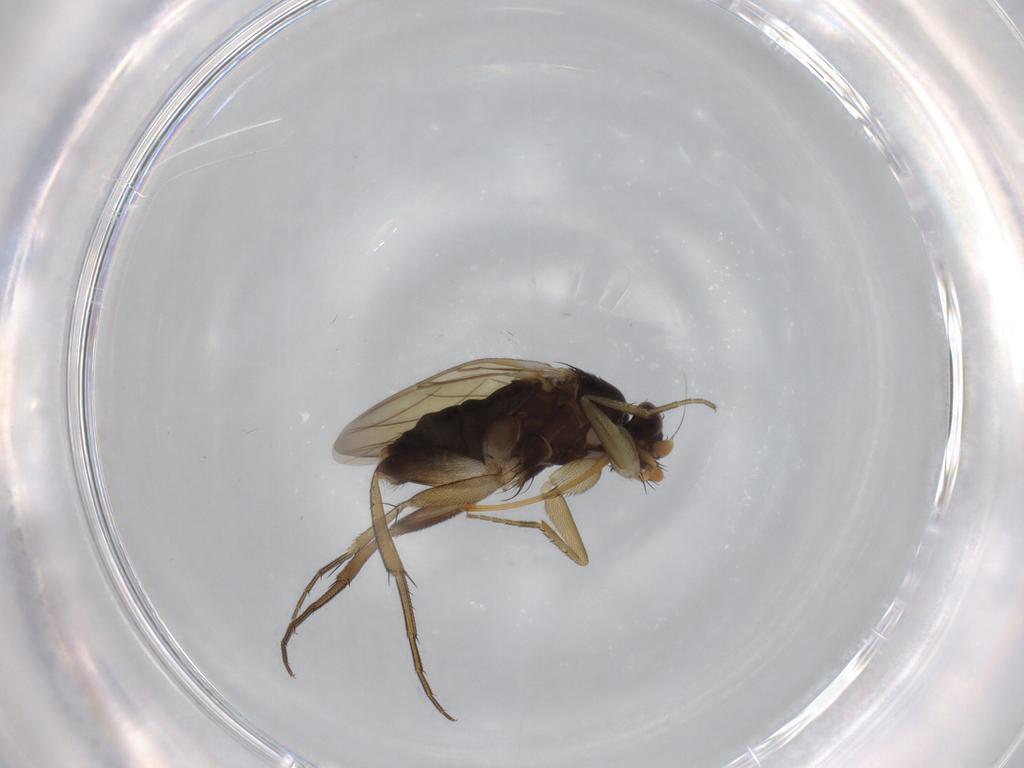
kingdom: Animalia
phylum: Arthropoda
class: Insecta
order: Diptera
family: Phoridae
